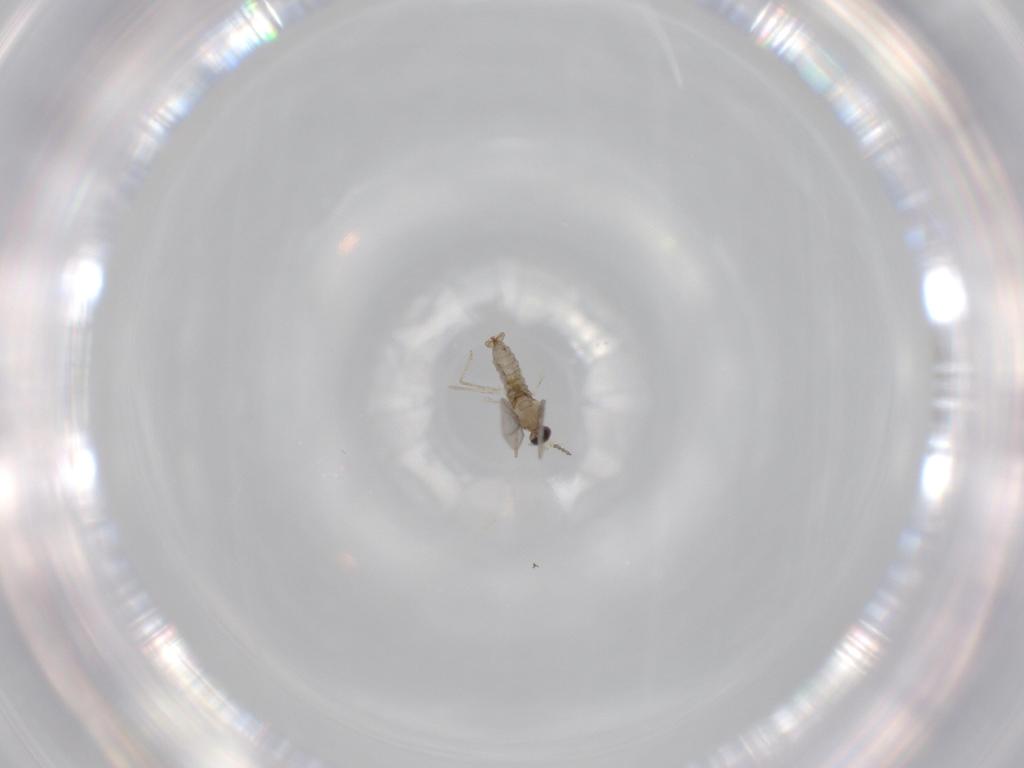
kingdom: Animalia
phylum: Arthropoda
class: Insecta
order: Diptera
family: Cecidomyiidae
